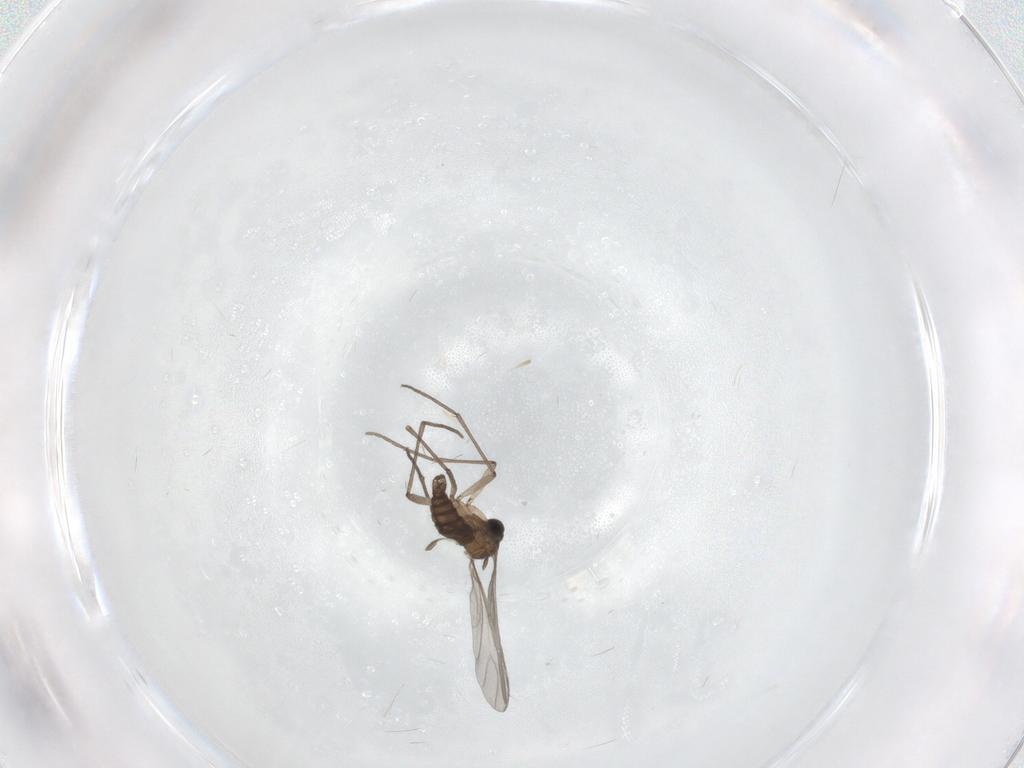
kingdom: Animalia
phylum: Arthropoda
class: Insecta
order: Diptera
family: Sciaridae
